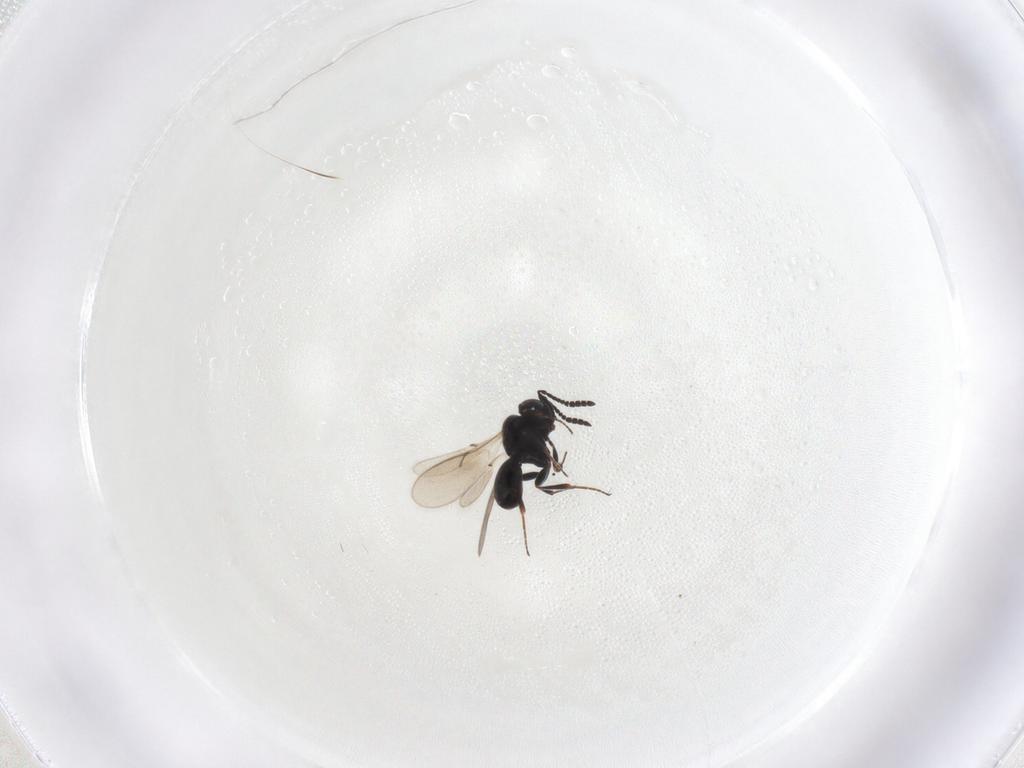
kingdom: Animalia
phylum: Arthropoda
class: Insecta
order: Hymenoptera
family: Scelionidae
